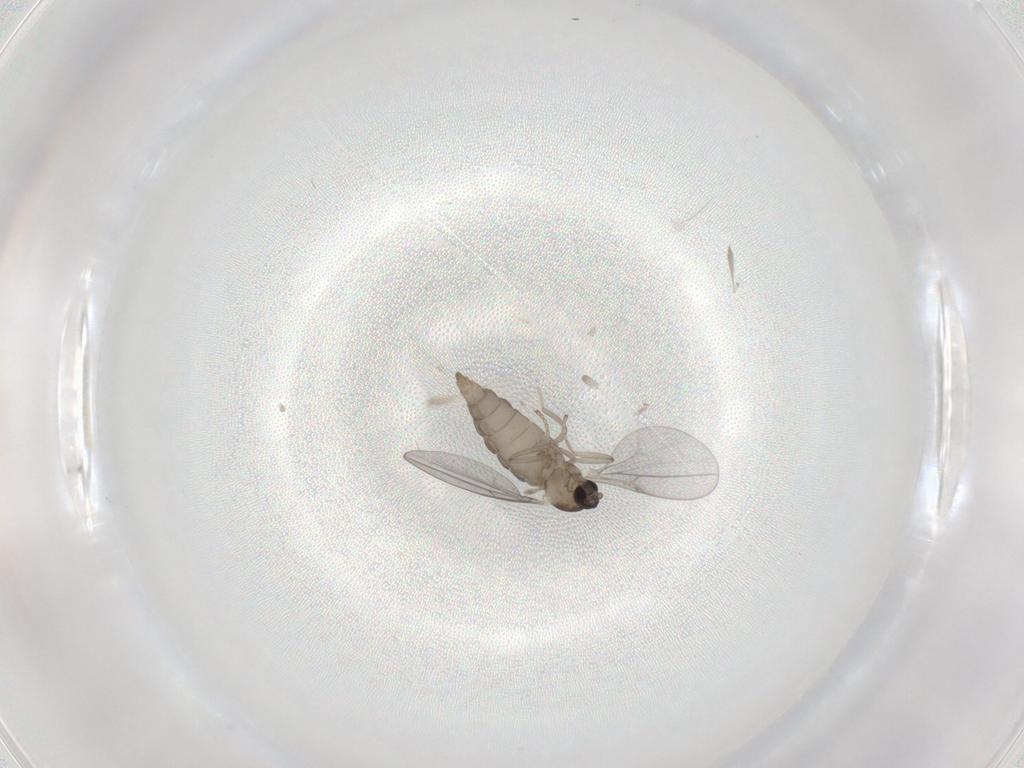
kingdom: Animalia
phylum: Arthropoda
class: Insecta
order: Diptera
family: Cecidomyiidae
